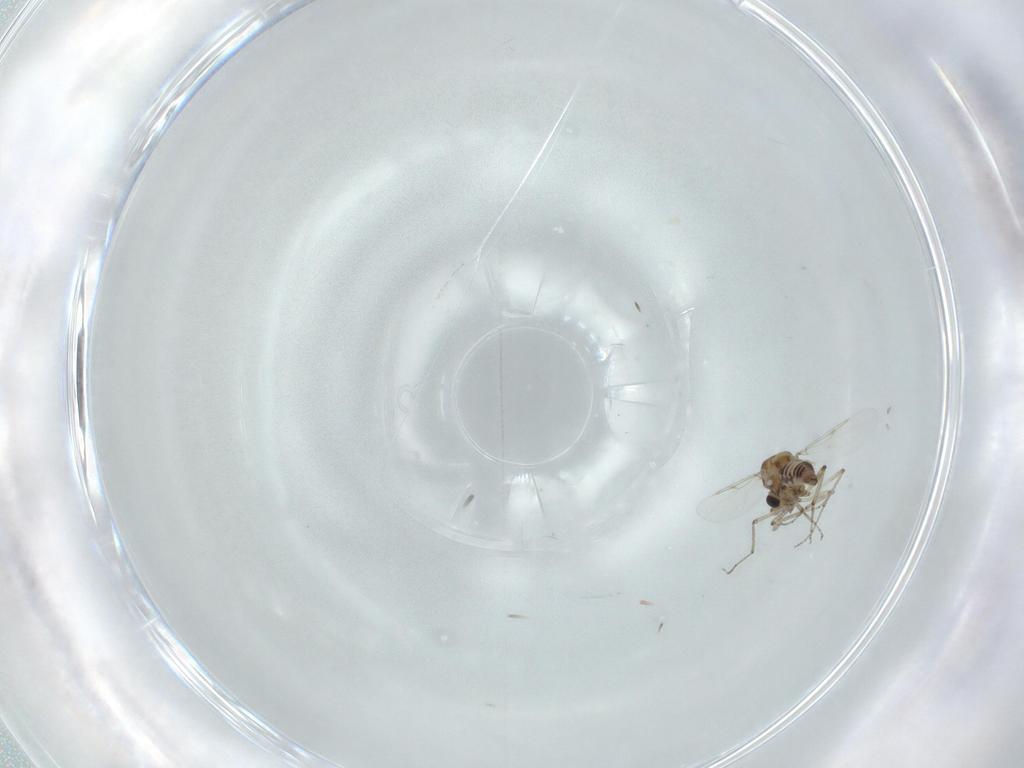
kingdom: Animalia
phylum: Arthropoda
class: Insecta
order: Diptera
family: Ceratopogonidae
